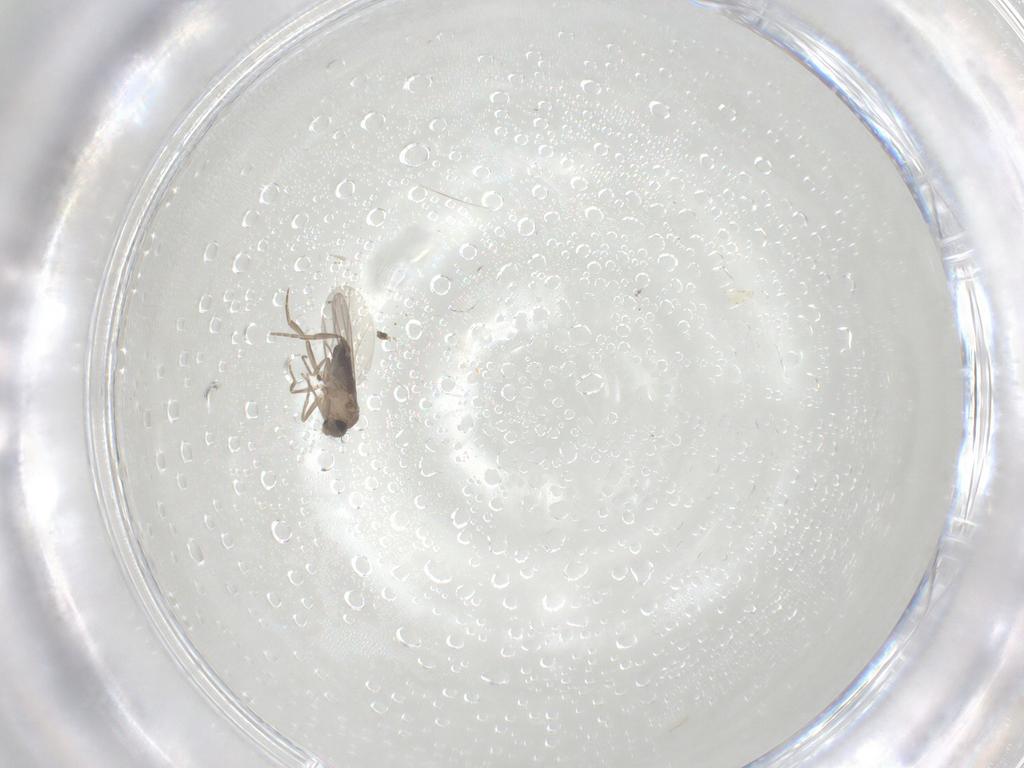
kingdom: Animalia
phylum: Arthropoda
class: Insecta
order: Diptera
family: Phoridae
